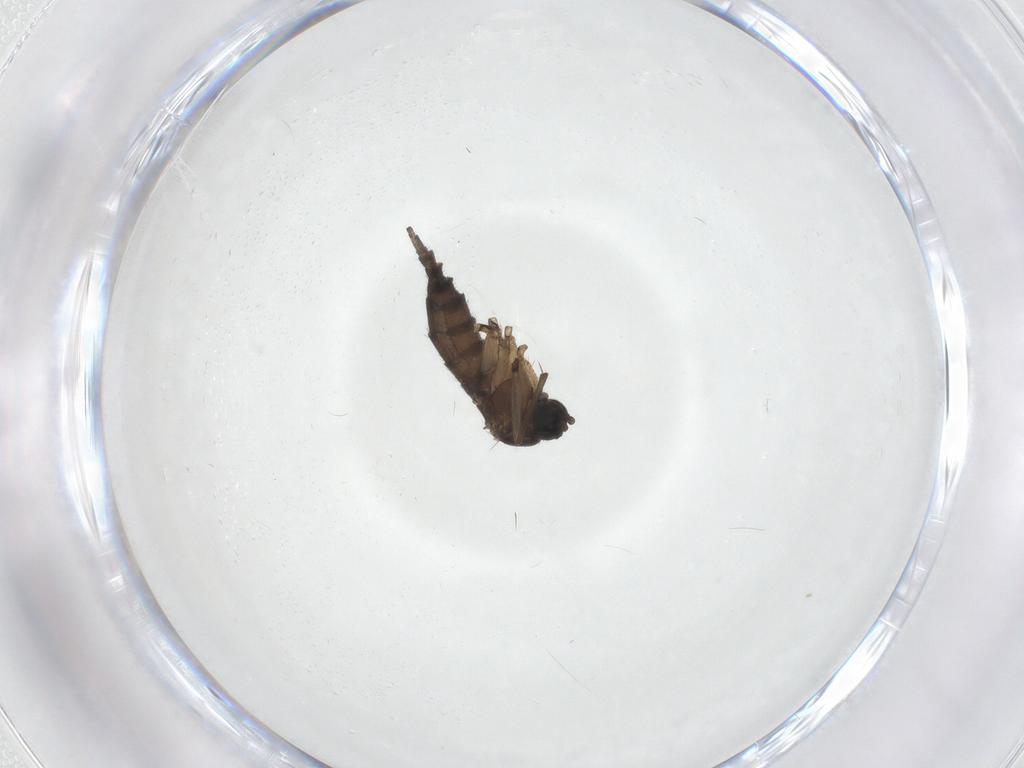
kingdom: Animalia
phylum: Arthropoda
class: Insecta
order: Diptera
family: Sciaridae
